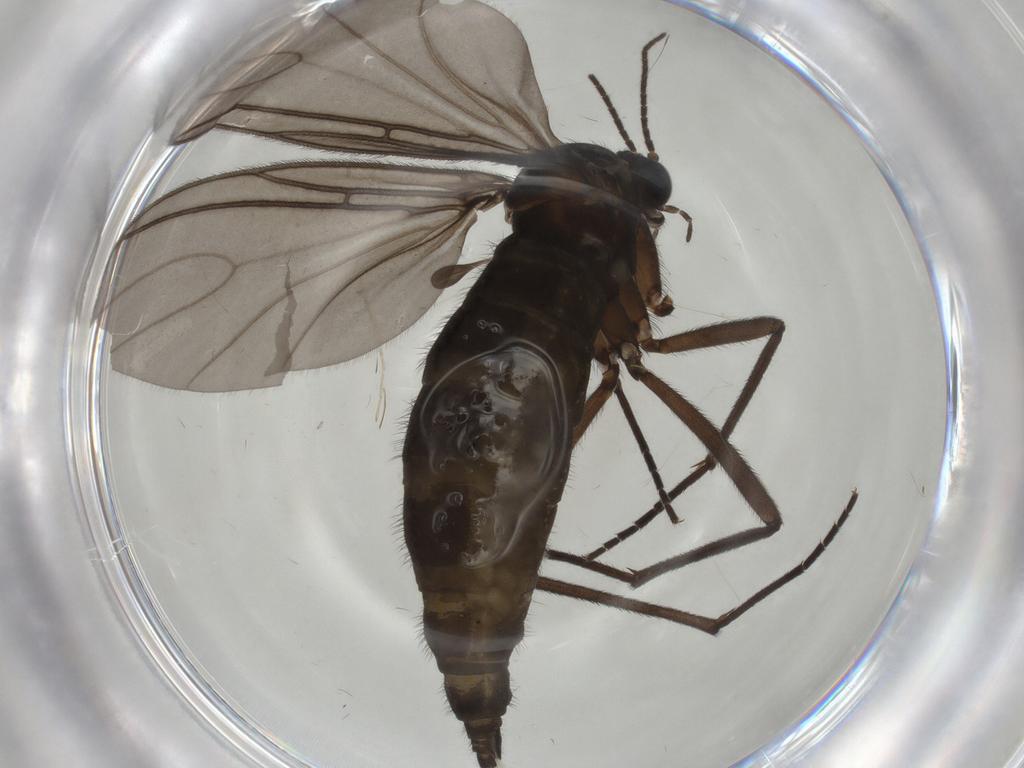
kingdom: Animalia
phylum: Arthropoda
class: Insecta
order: Diptera
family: Sciaridae
